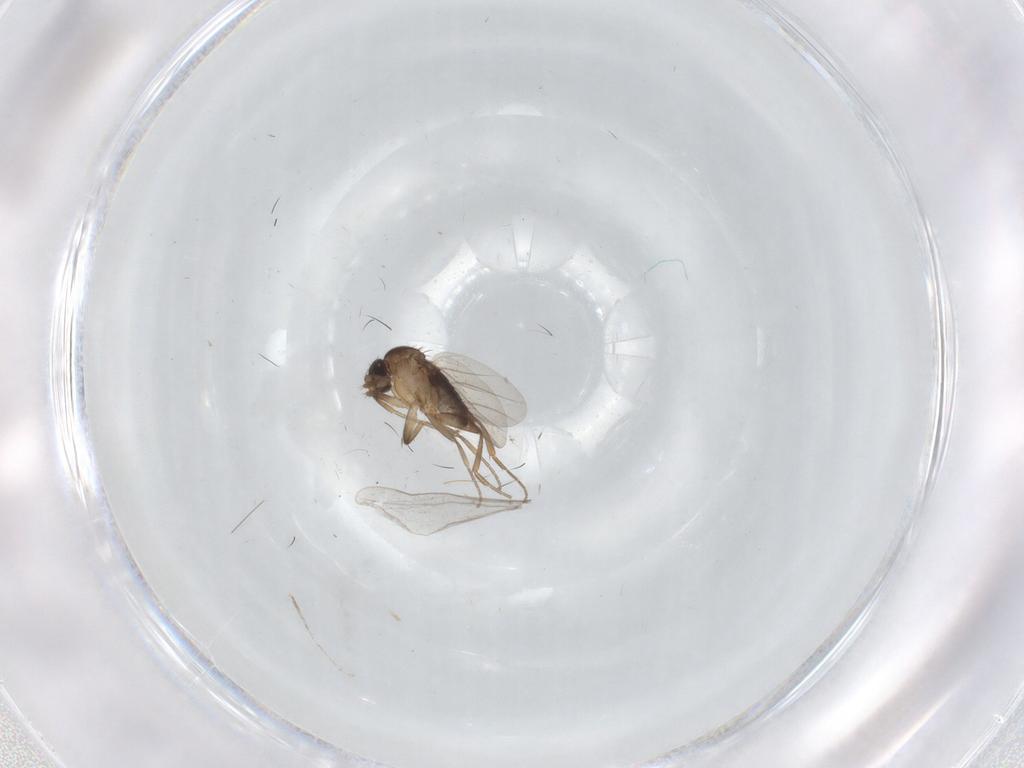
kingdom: Animalia
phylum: Arthropoda
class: Insecta
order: Diptera
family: Cecidomyiidae
